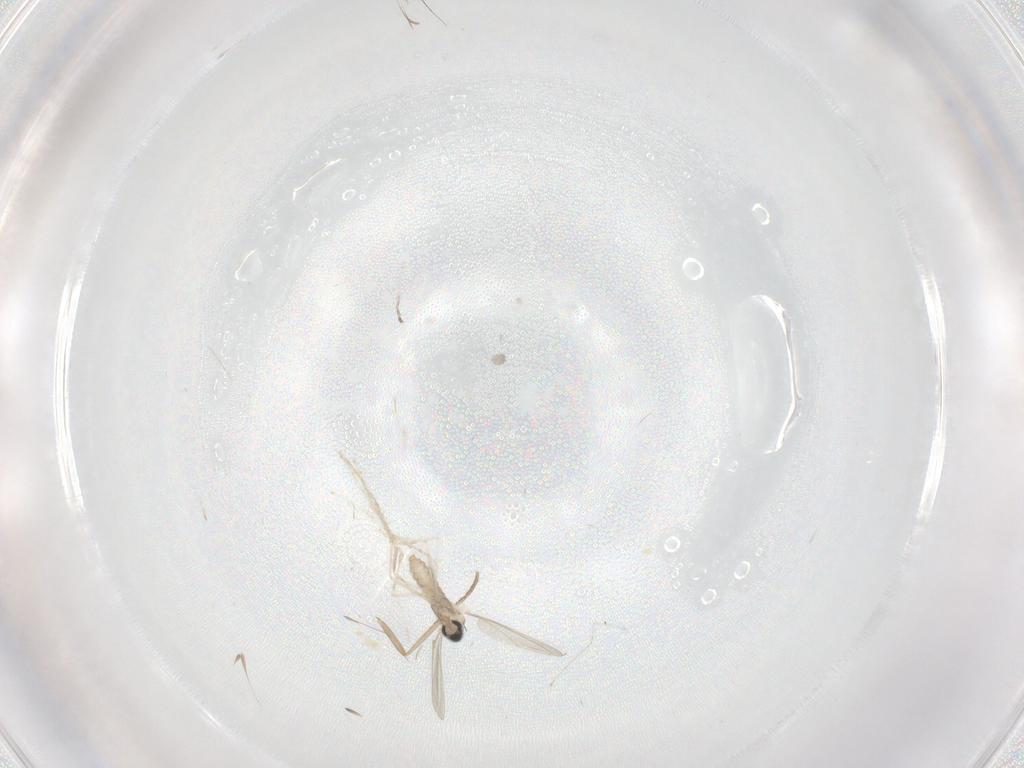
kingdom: Animalia
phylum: Arthropoda
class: Insecta
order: Diptera
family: Cecidomyiidae
